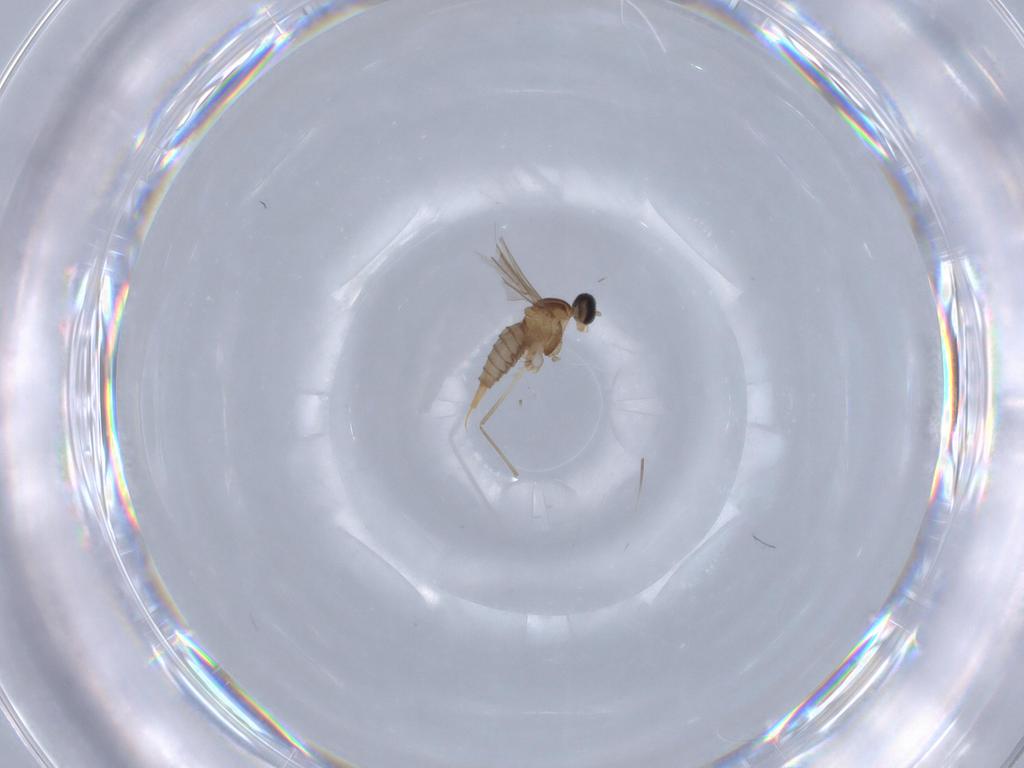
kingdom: Animalia
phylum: Arthropoda
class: Insecta
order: Diptera
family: Cecidomyiidae
